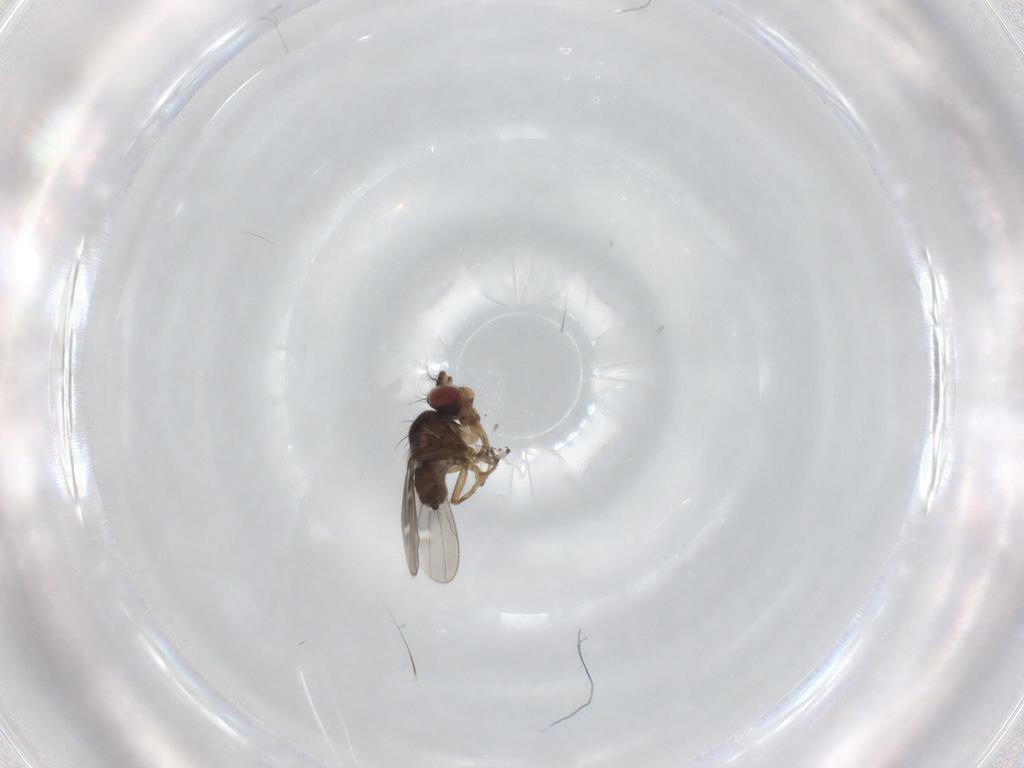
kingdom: Animalia
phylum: Arthropoda
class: Insecta
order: Diptera
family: Ephydridae
